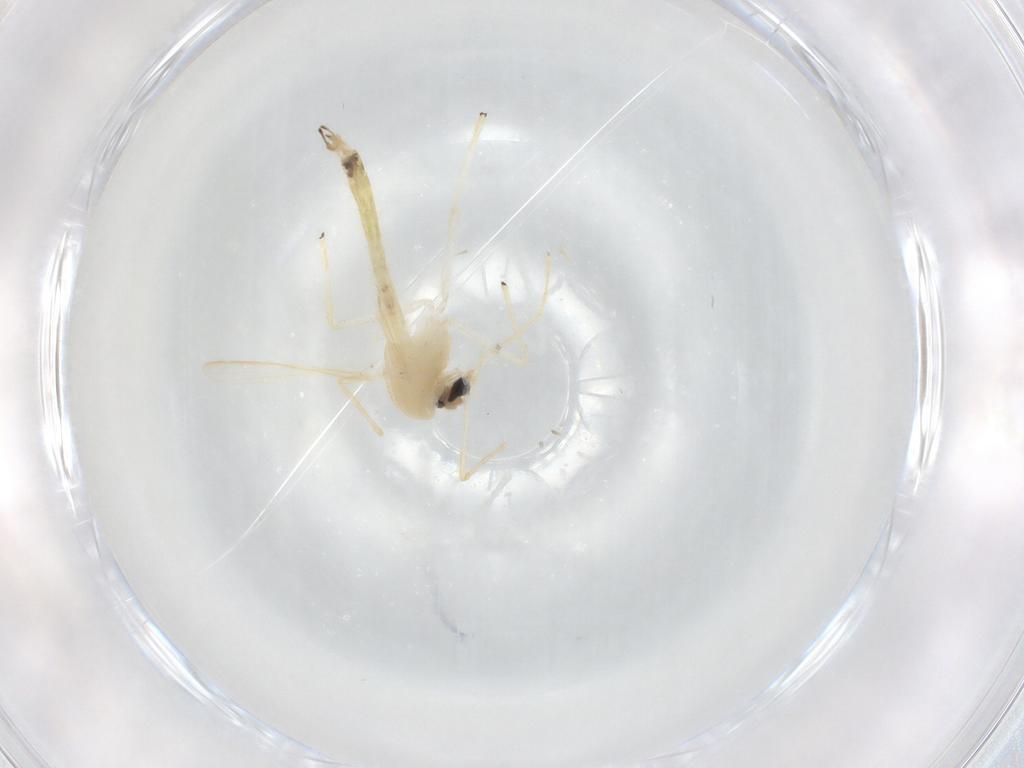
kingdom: Animalia
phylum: Arthropoda
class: Insecta
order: Diptera
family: Chironomidae
